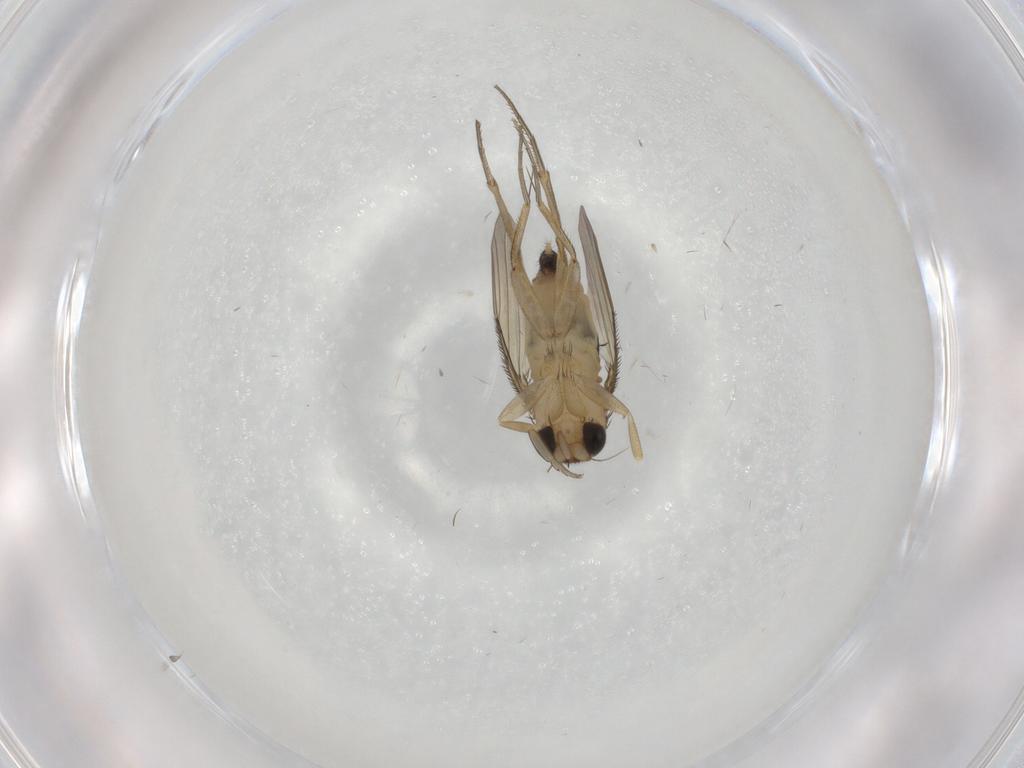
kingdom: Animalia
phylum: Arthropoda
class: Insecta
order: Diptera
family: Phoridae
